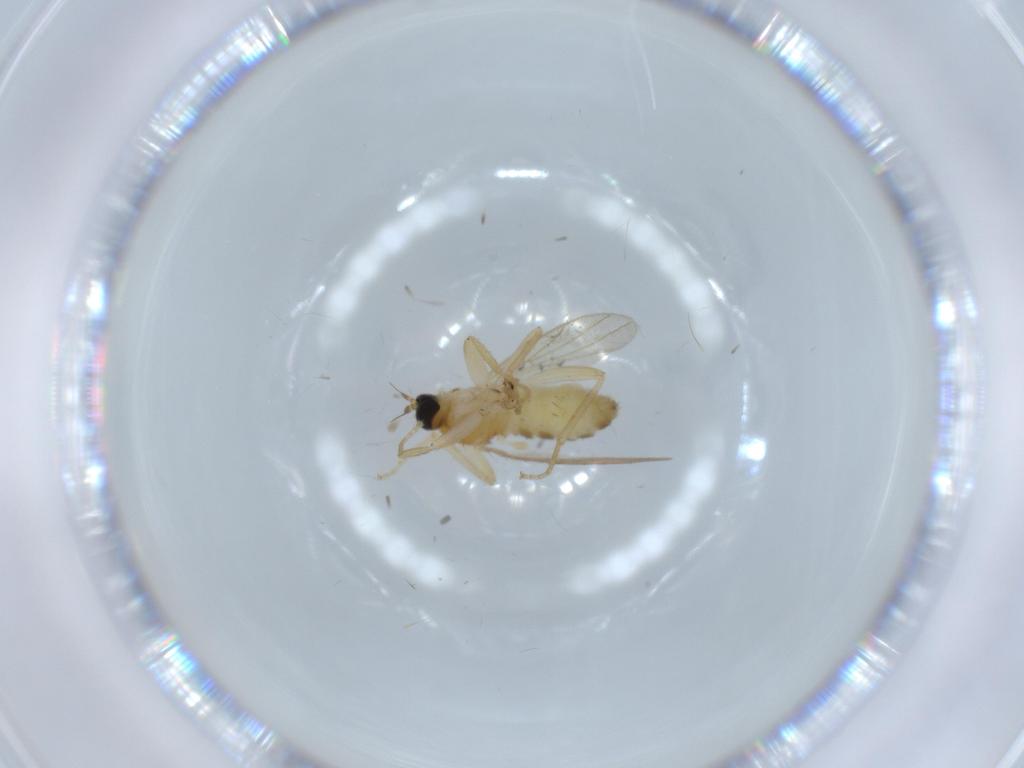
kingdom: Animalia
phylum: Arthropoda
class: Insecta
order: Diptera
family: Hybotidae
